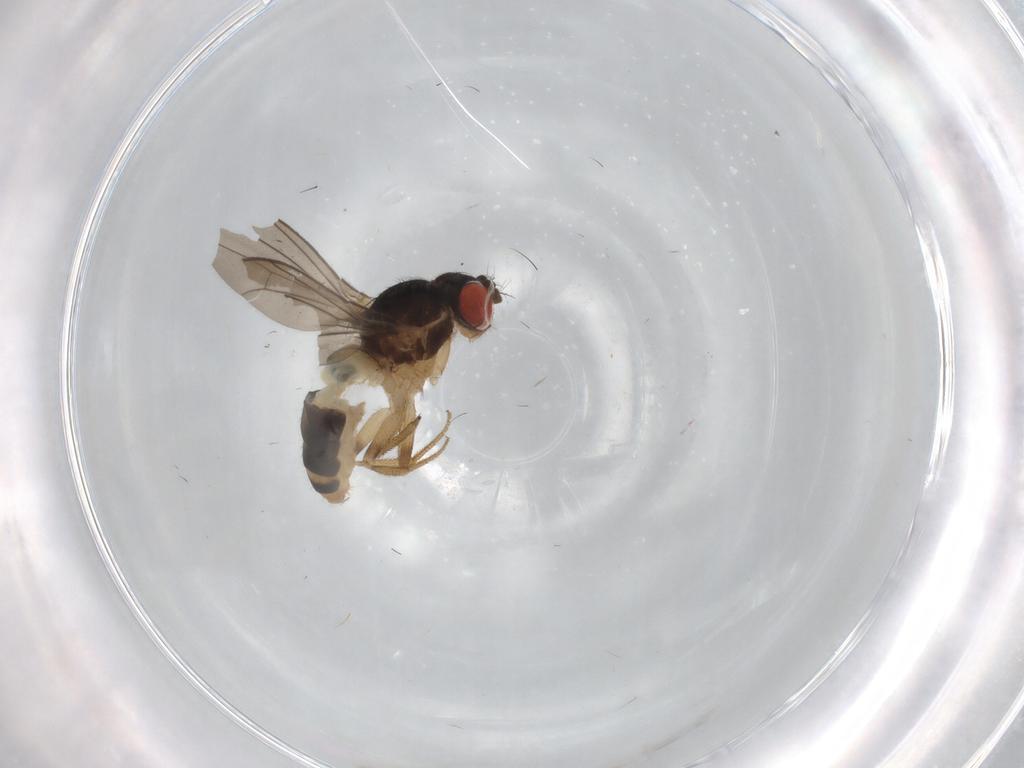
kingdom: Animalia
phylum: Arthropoda
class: Insecta
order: Diptera
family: Drosophilidae
